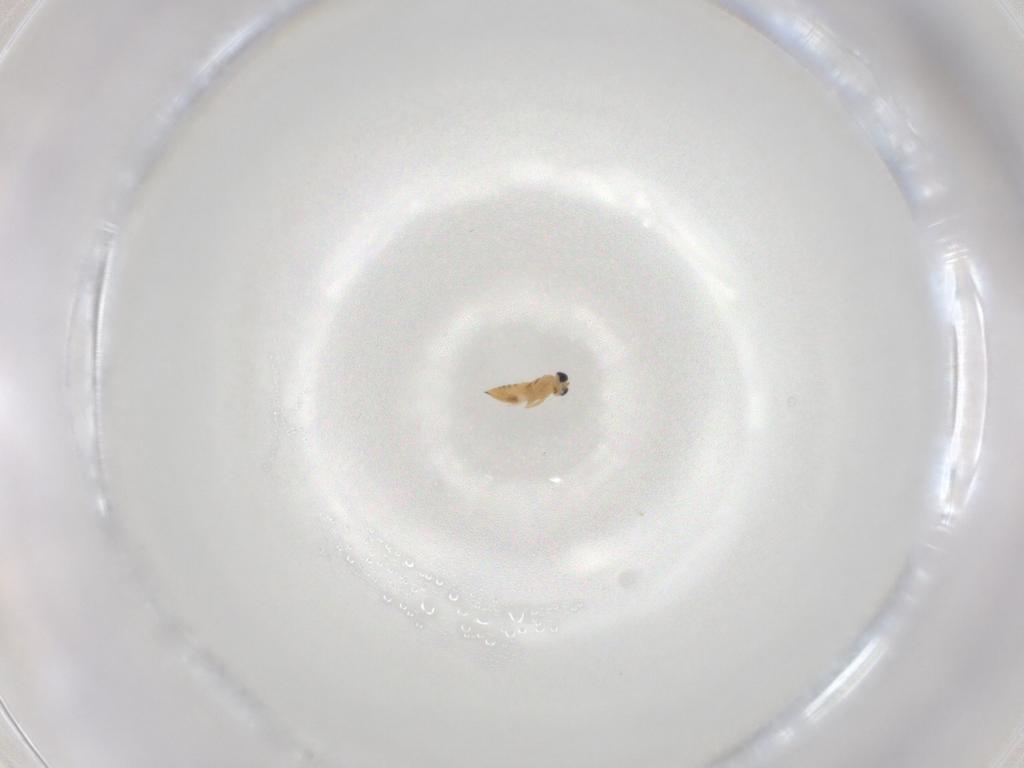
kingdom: Animalia
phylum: Arthropoda
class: Insecta
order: Hymenoptera
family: Trichogrammatidae
